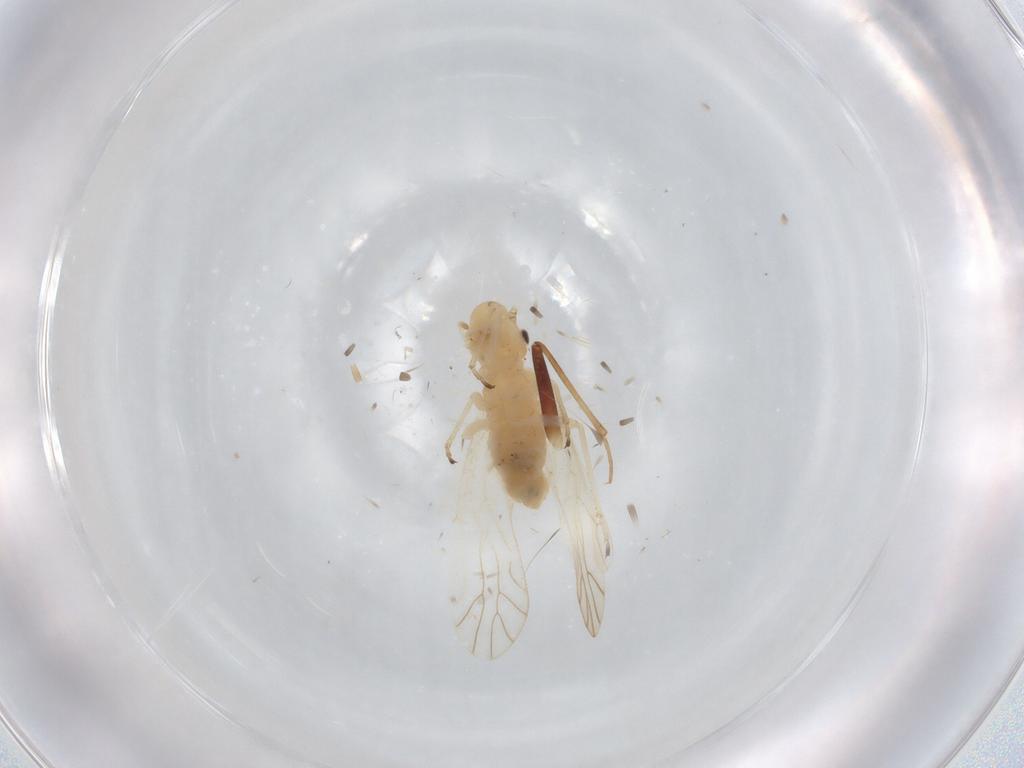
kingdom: Animalia
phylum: Arthropoda
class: Insecta
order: Psocodea
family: Caeciliusidae
